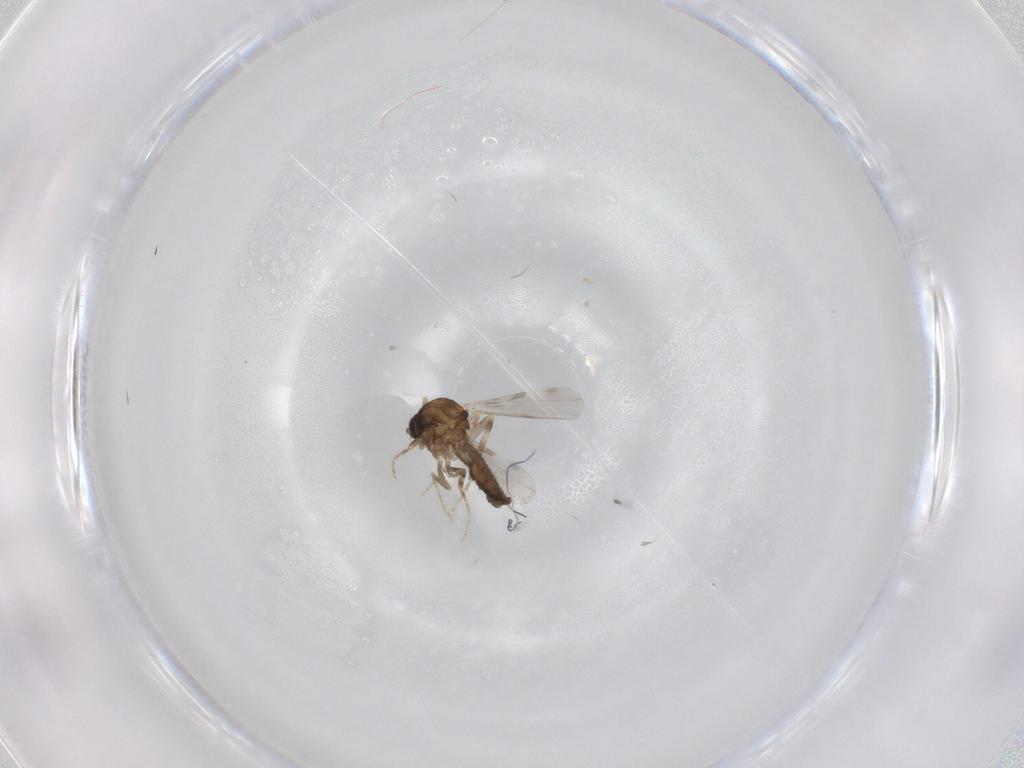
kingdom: Animalia
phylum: Arthropoda
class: Insecta
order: Diptera
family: Ceratopogonidae
